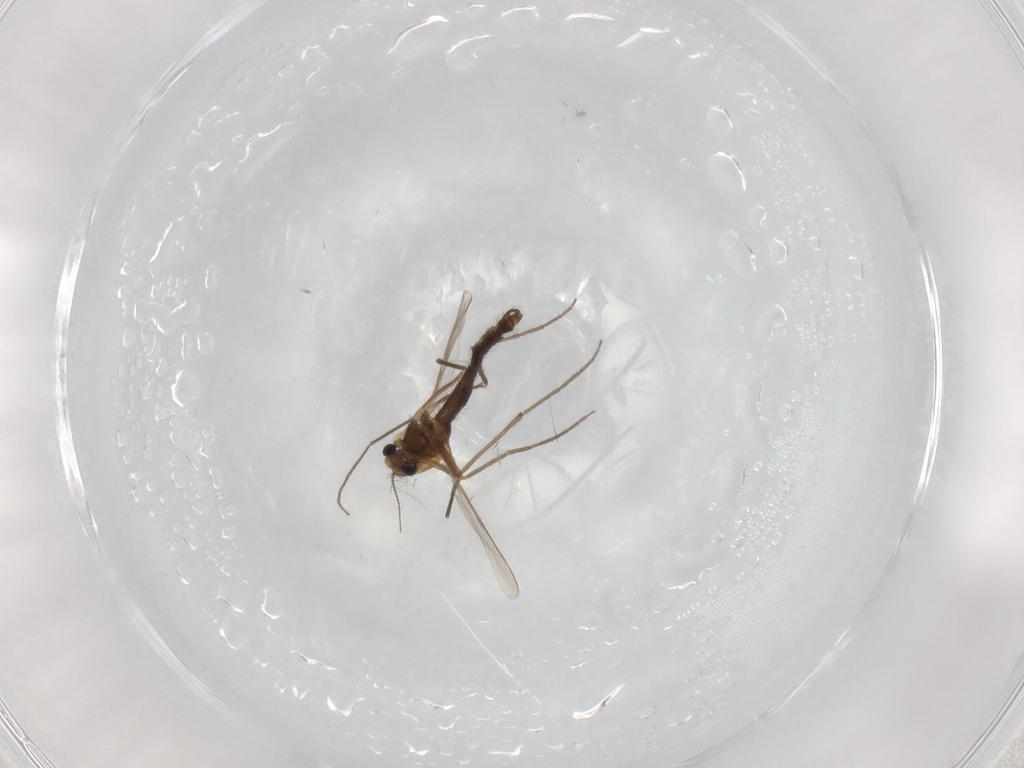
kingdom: Animalia
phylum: Arthropoda
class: Insecta
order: Diptera
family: Chironomidae
